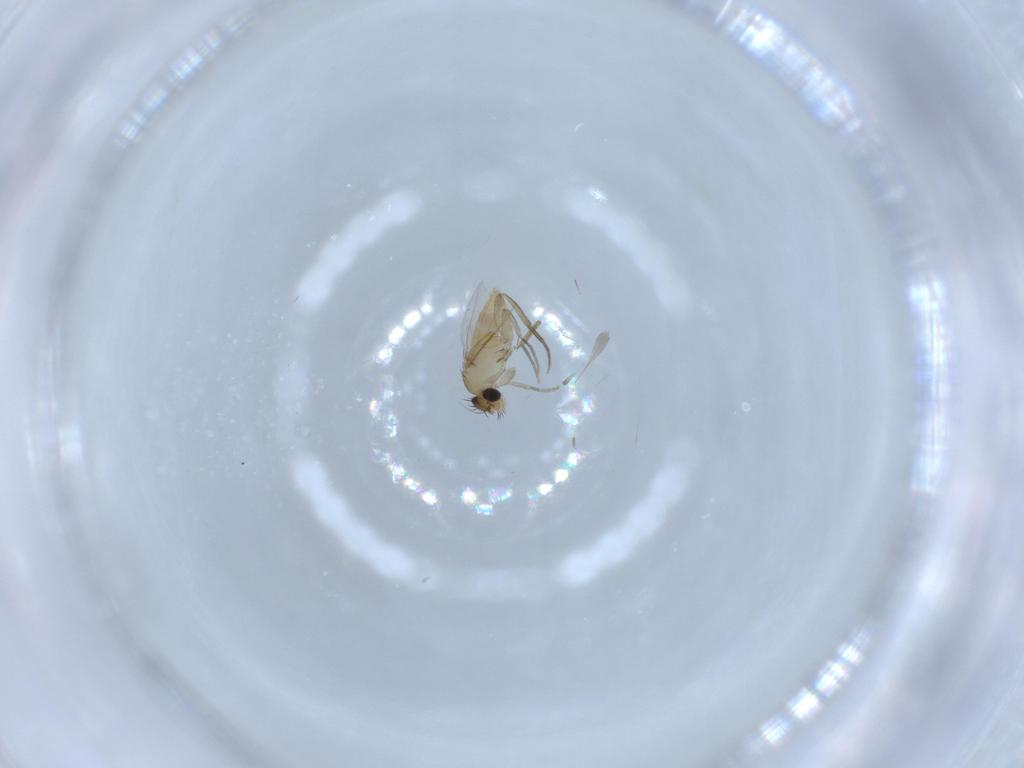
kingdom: Animalia
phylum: Arthropoda
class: Insecta
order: Diptera
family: Phoridae
